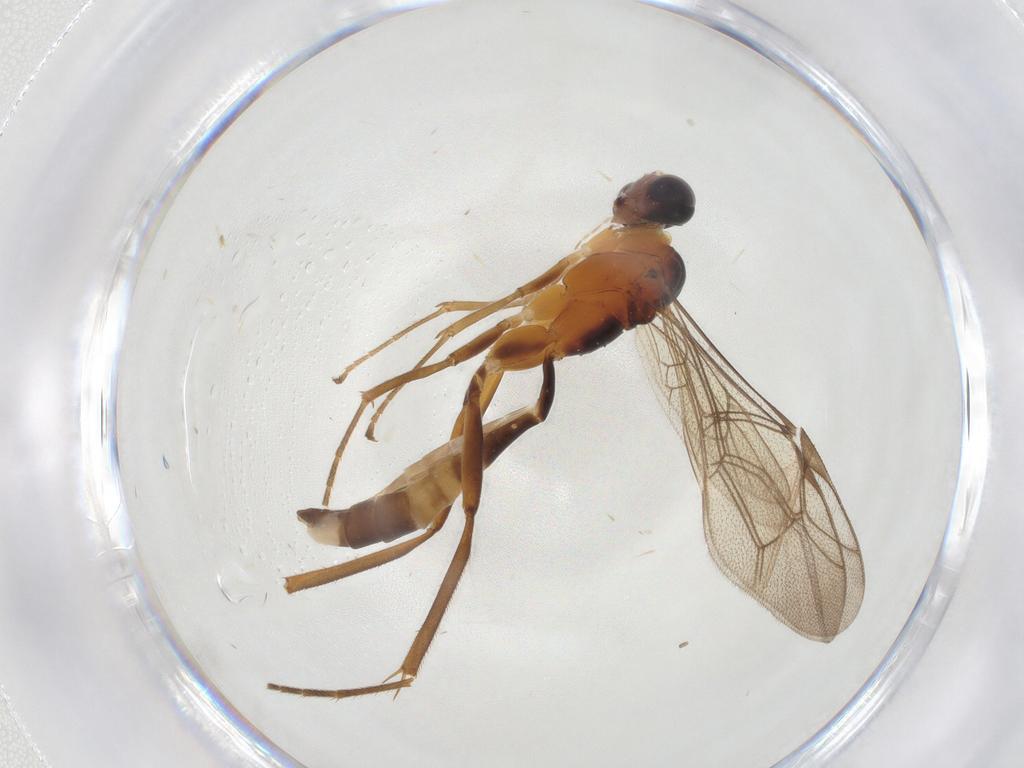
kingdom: Animalia
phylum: Arthropoda
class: Insecta
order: Hymenoptera
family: Ichneumonidae
